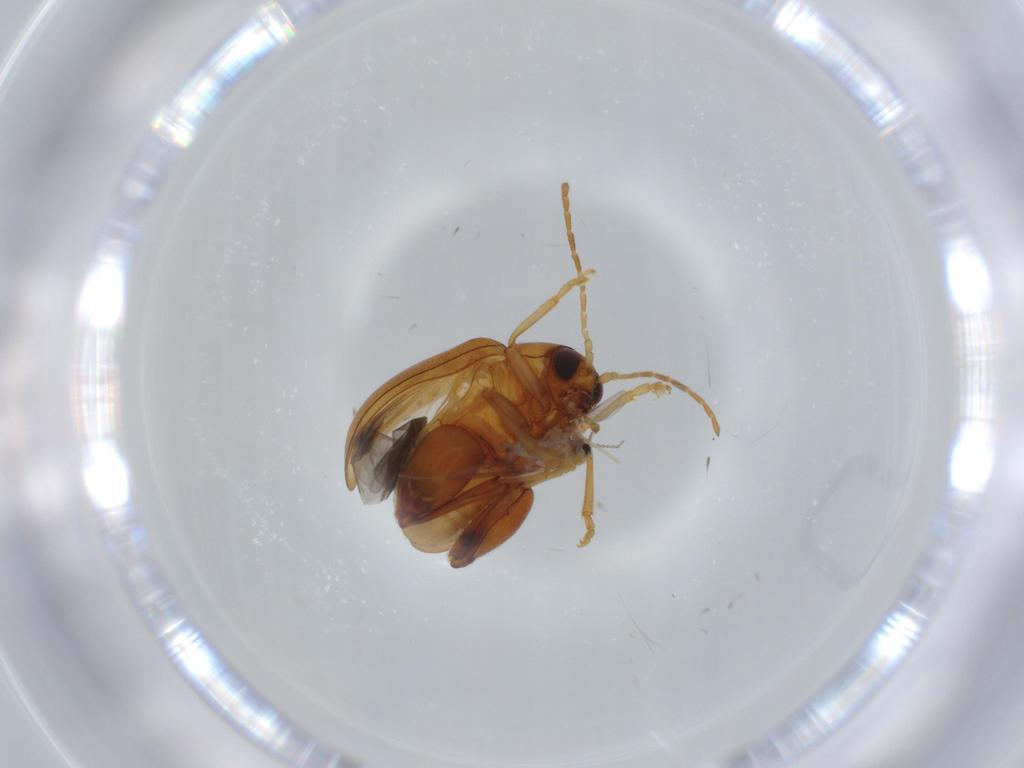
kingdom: Animalia
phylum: Arthropoda
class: Insecta
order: Coleoptera
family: Chrysomelidae
